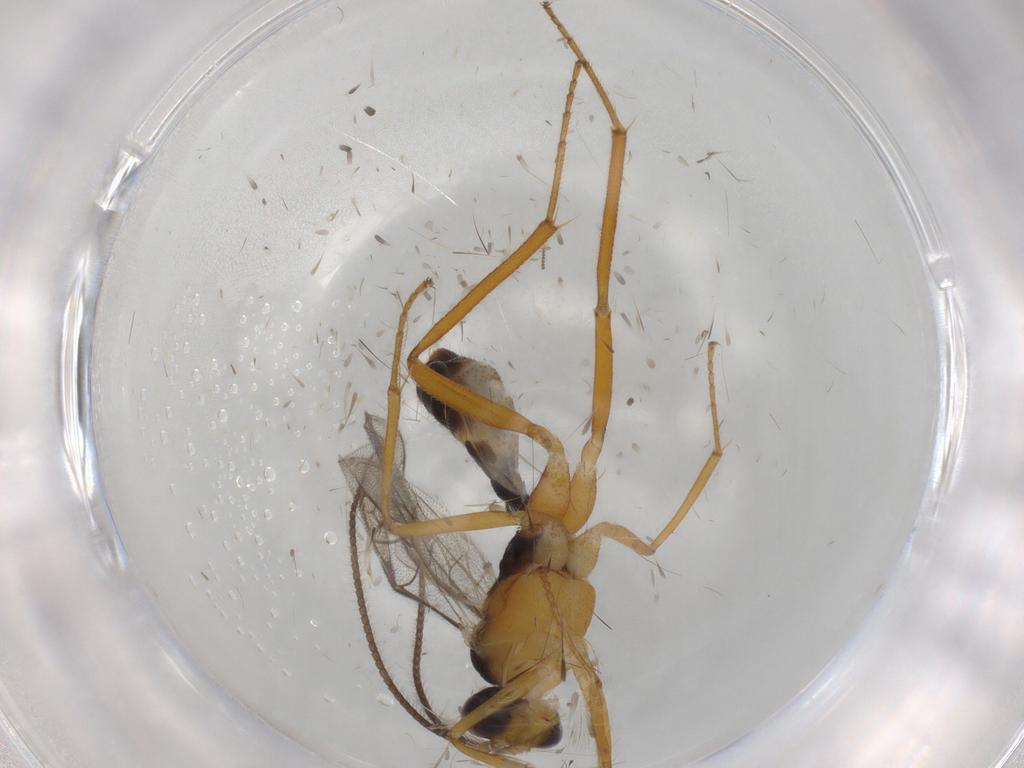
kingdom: Animalia
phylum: Arthropoda
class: Insecta
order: Hymenoptera
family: Ichneumonidae
